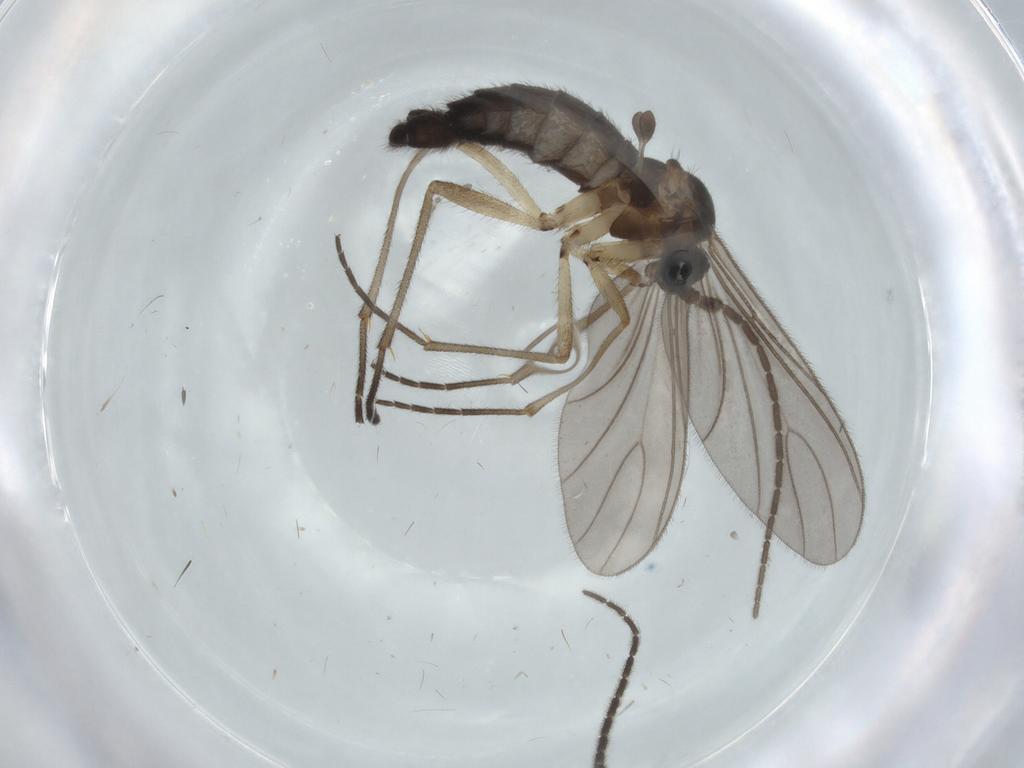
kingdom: Animalia
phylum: Arthropoda
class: Insecta
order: Diptera
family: Sciaridae
